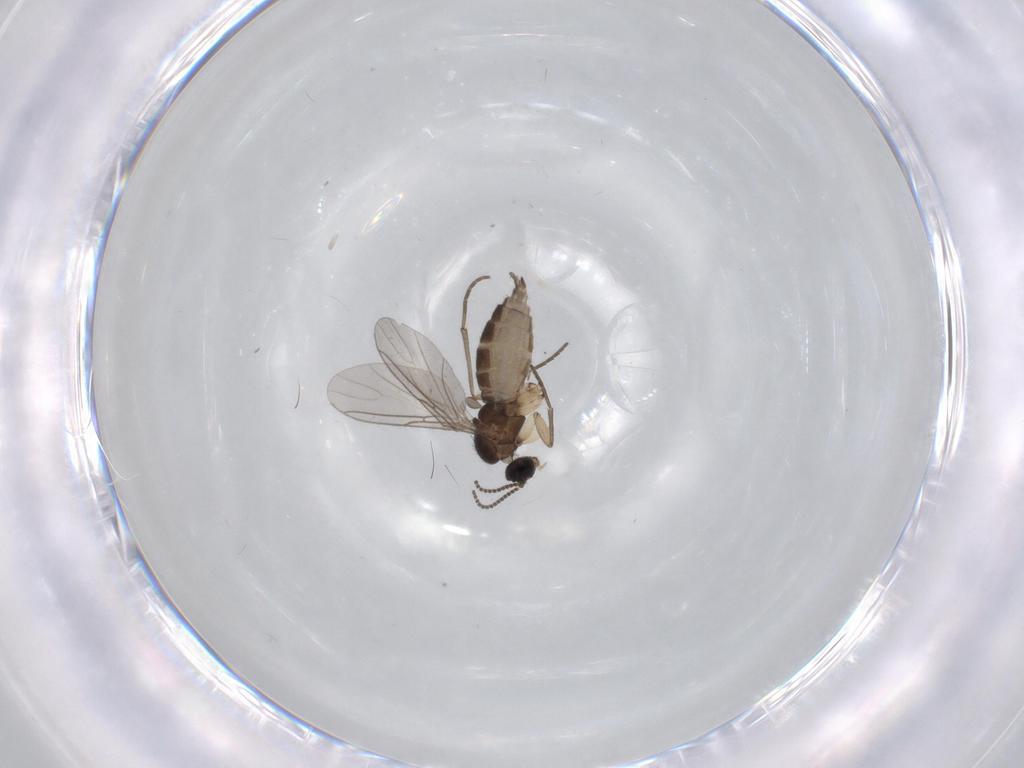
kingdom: Animalia
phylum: Arthropoda
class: Insecta
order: Diptera
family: Sciaridae
